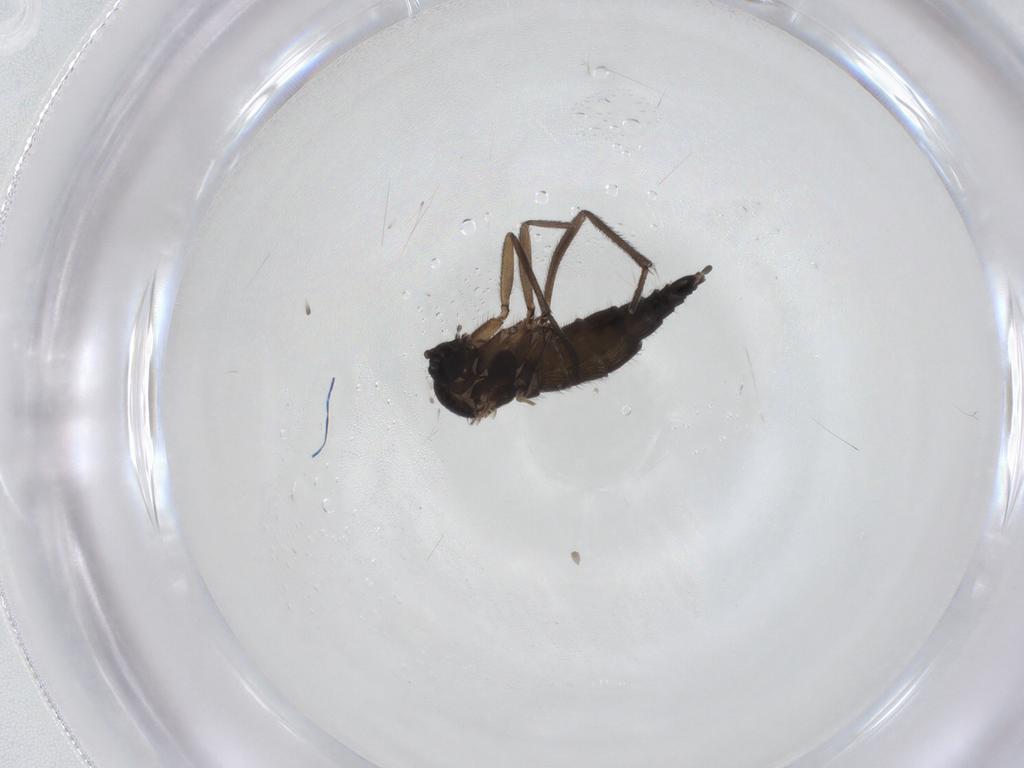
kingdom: Animalia
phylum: Arthropoda
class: Insecta
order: Diptera
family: Sciaridae
